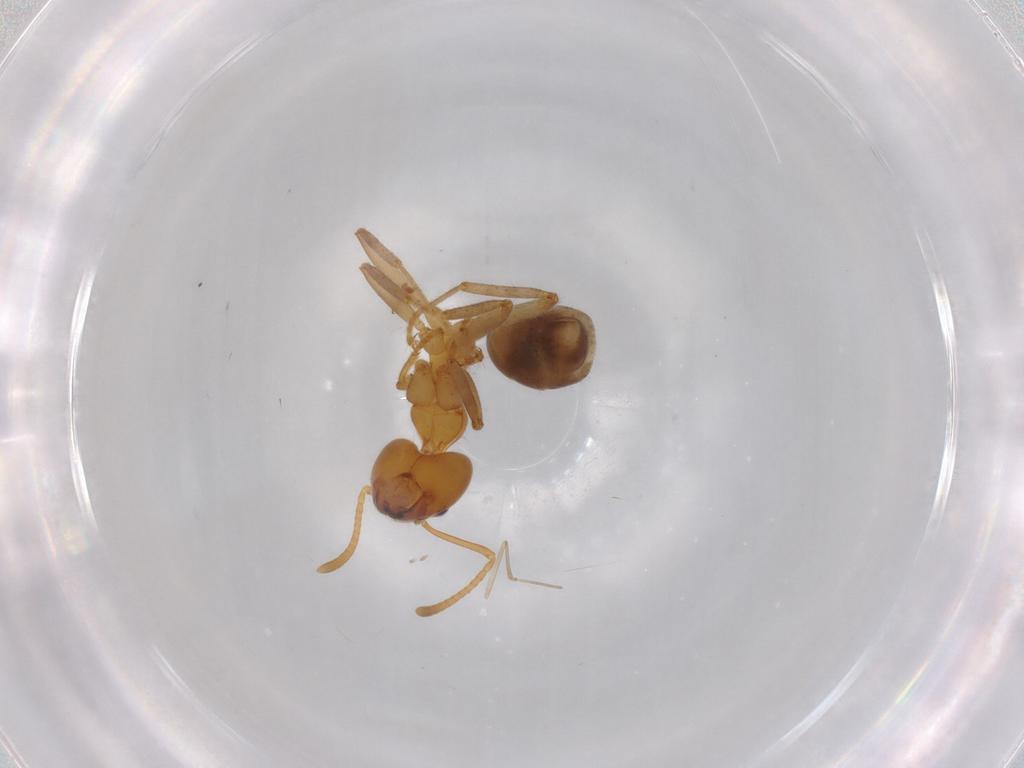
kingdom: Animalia
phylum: Arthropoda
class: Insecta
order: Hymenoptera
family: Formicidae
